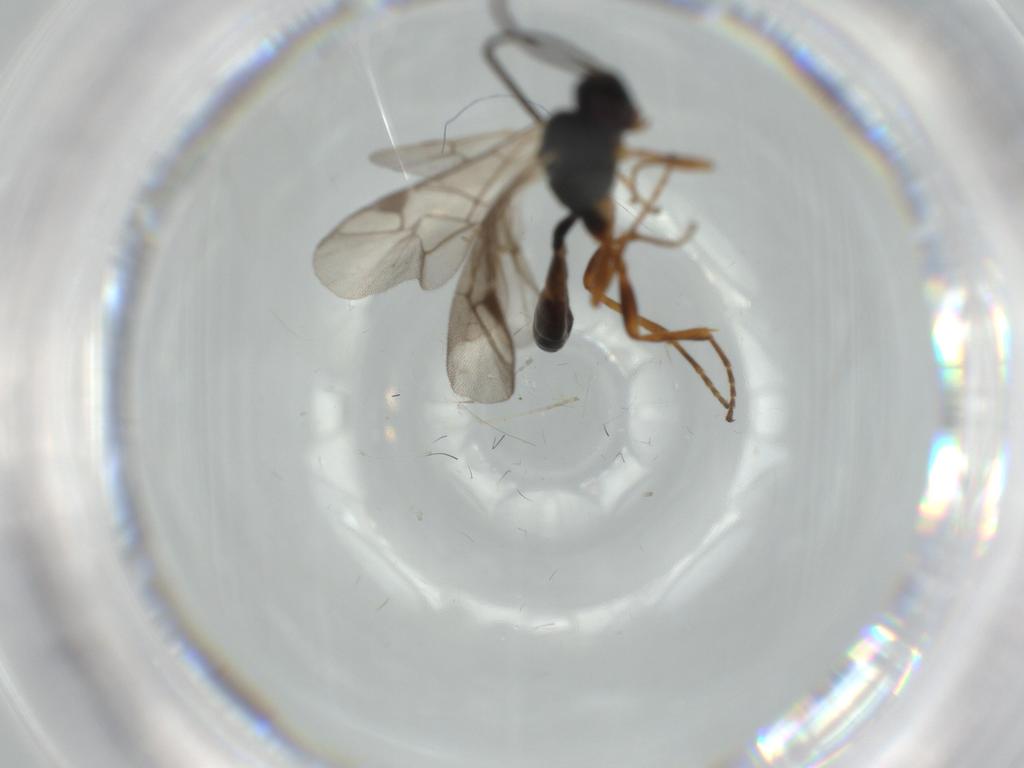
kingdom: Animalia
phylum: Arthropoda
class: Insecta
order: Hymenoptera
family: Ichneumonidae
